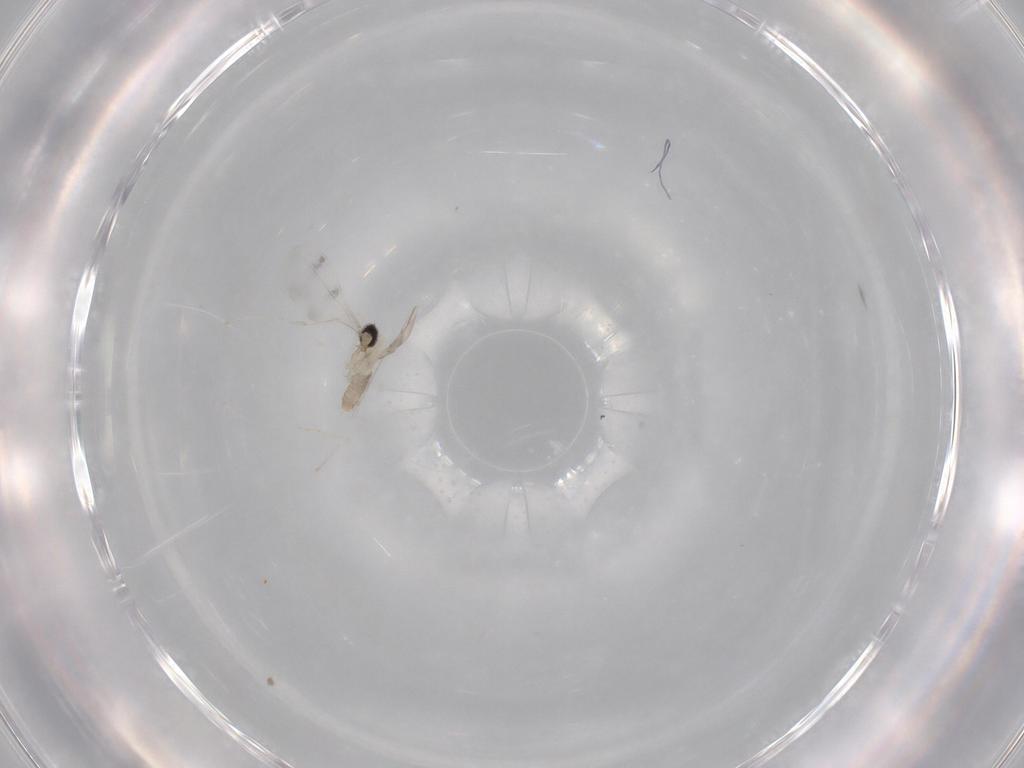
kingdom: Animalia
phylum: Arthropoda
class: Insecta
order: Diptera
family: Cecidomyiidae
